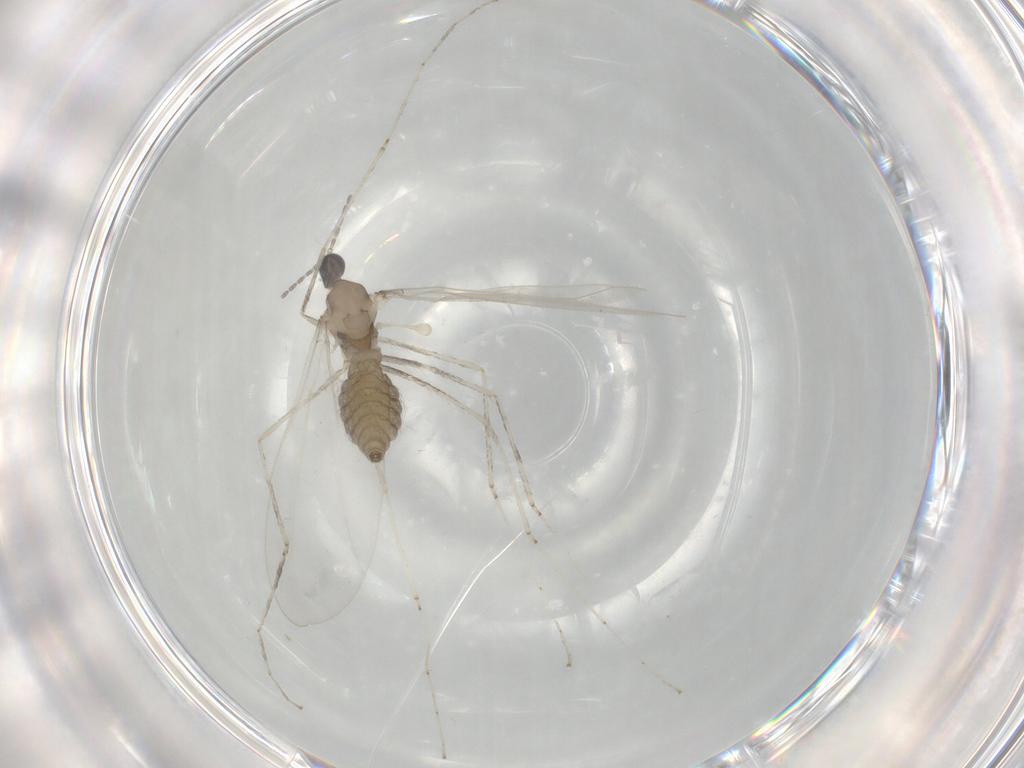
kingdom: Animalia
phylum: Arthropoda
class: Insecta
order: Diptera
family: Cecidomyiidae
